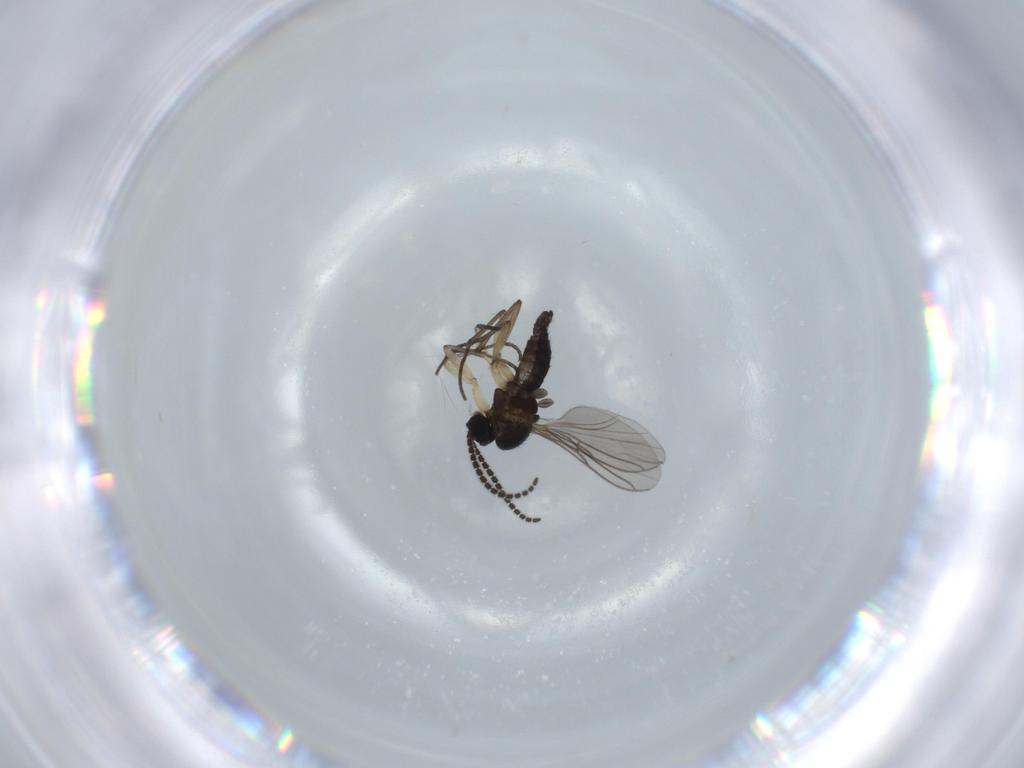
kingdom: Animalia
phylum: Arthropoda
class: Insecta
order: Diptera
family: Sciaridae
